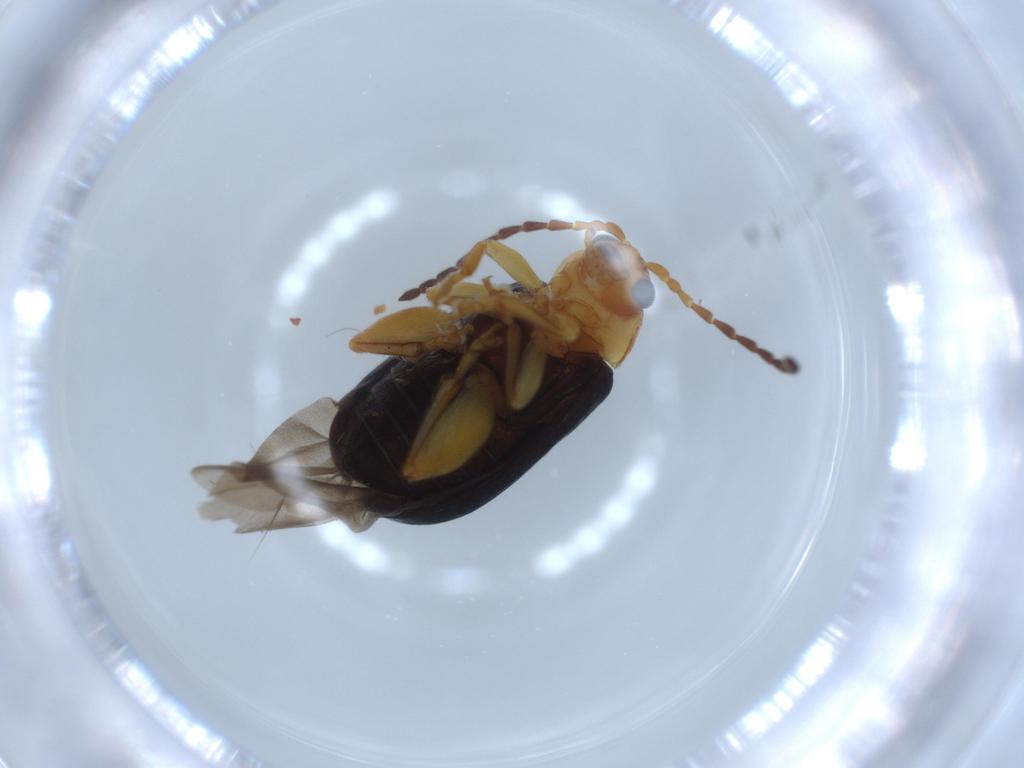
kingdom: Animalia
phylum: Arthropoda
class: Insecta
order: Coleoptera
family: Chrysomelidae
